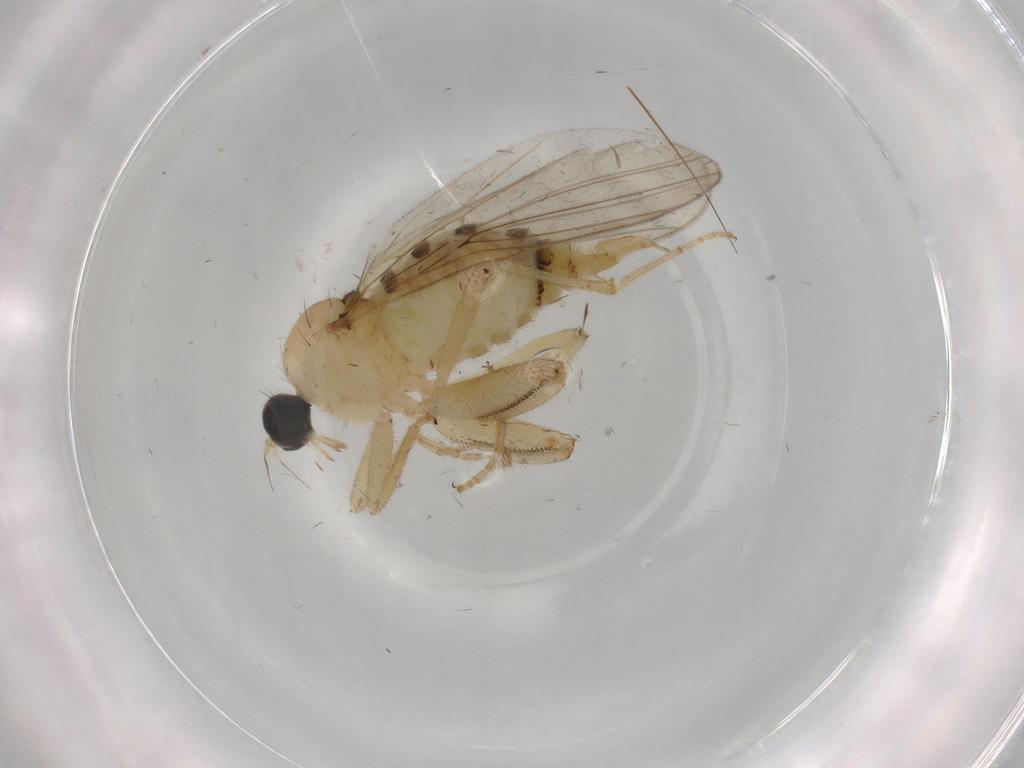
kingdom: Animalia
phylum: Arthropoda
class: Insecta
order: Diptera
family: Hybotidae
